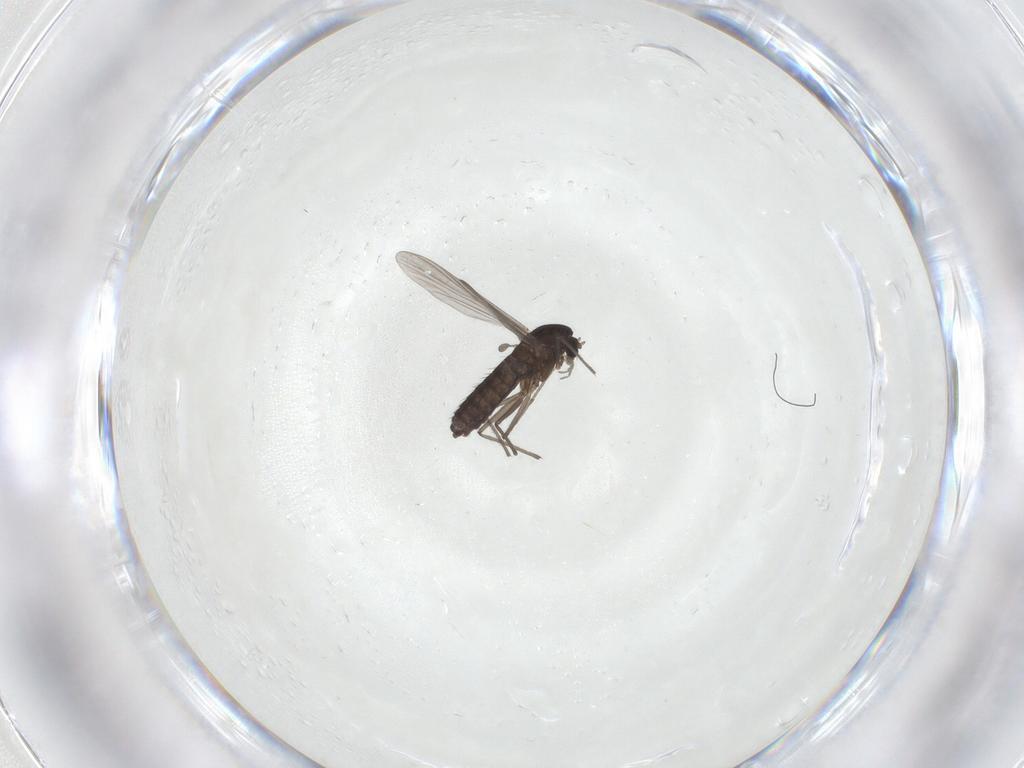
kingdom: Animalia
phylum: Arthropoda
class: Insecta
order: Diptera
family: Chironomidae
